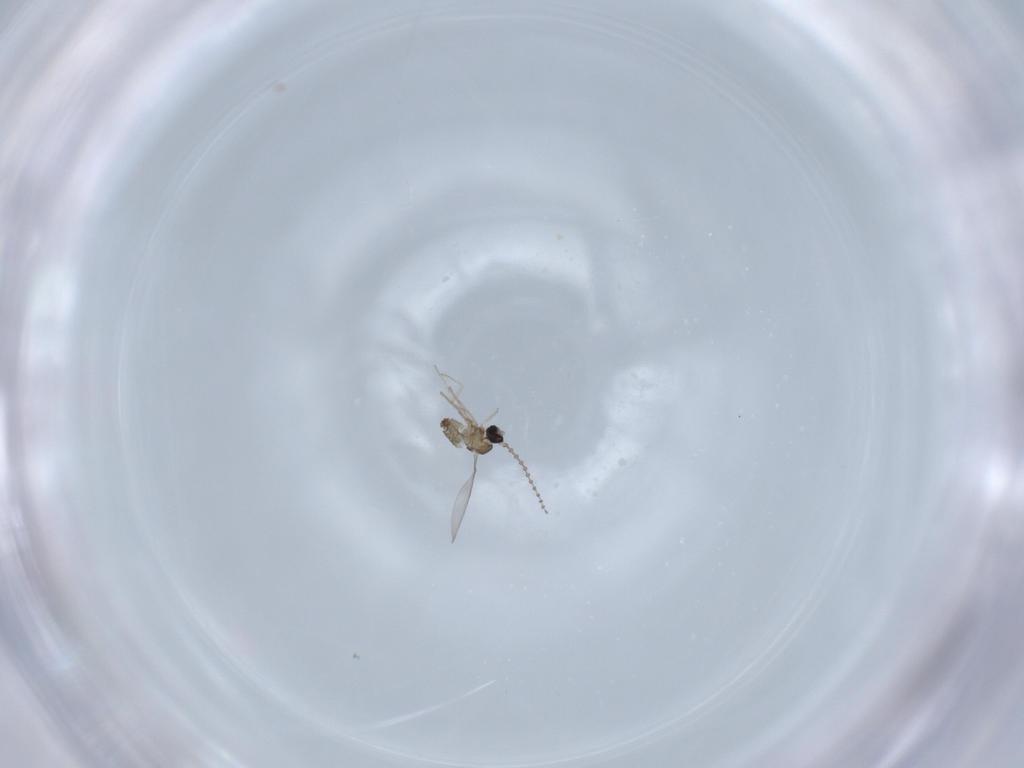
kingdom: Animalia
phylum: Arthropoda
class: Insecta
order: Diptera
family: Cecidomyiidae
